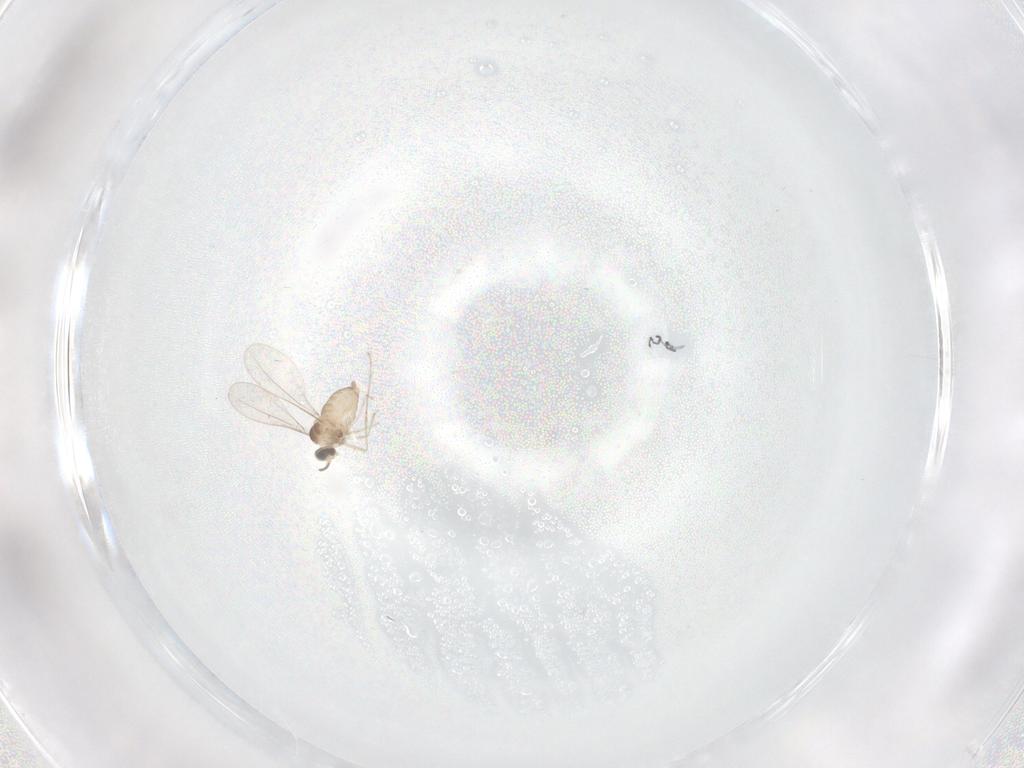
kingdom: Animalia
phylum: Arthropoda
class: Insecta
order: Diptera
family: Cecidomyiidae
